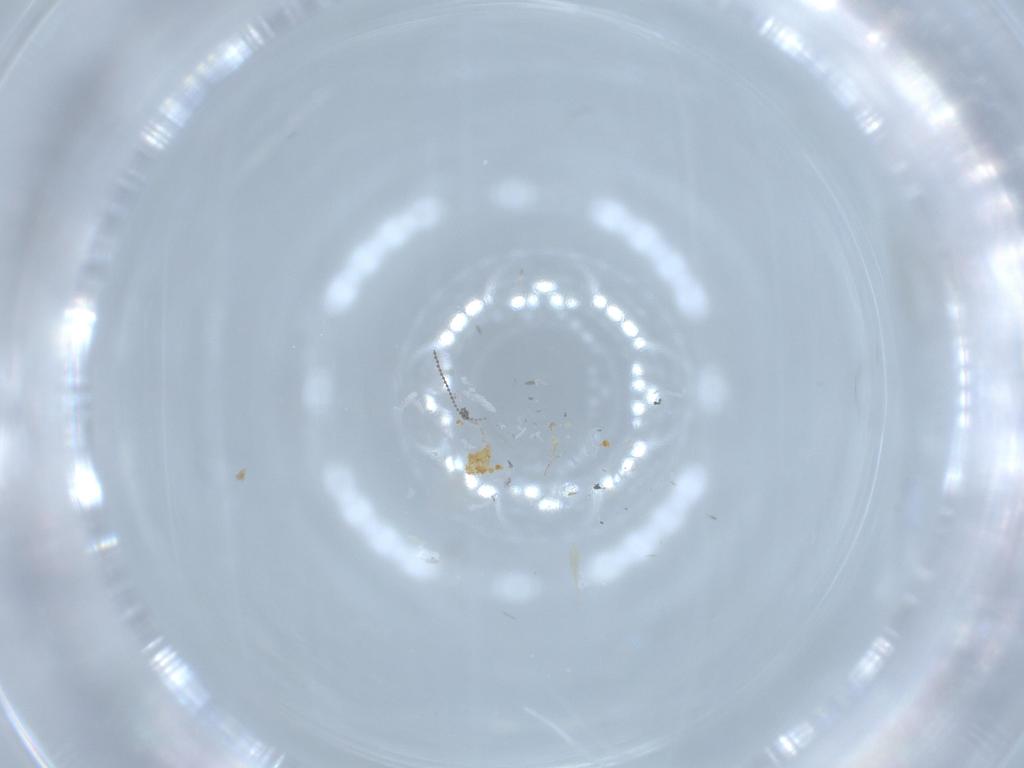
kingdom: Animalia
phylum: Arthropoda
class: Insecta
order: Diptera
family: Cecidomyiidae
